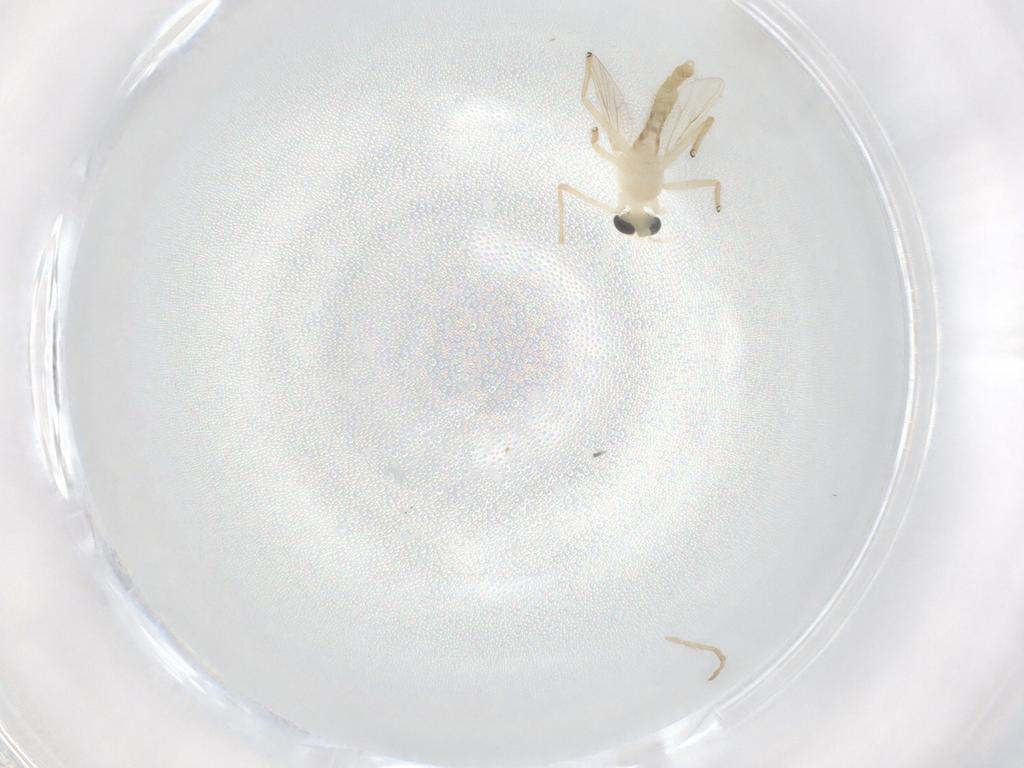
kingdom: Animalia
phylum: Arthropoda
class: Insecta
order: Diptera
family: Chironomidae
